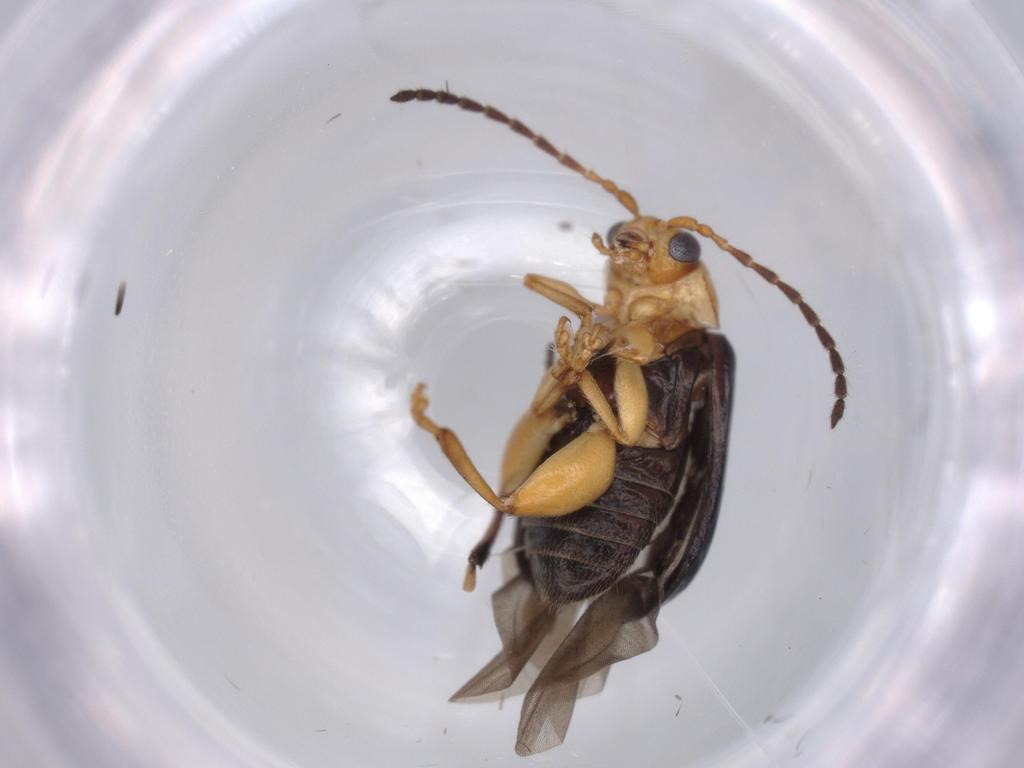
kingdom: Animalia
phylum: Arthropoda
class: Insecta
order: Coleoptera
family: Chrysomelidae
